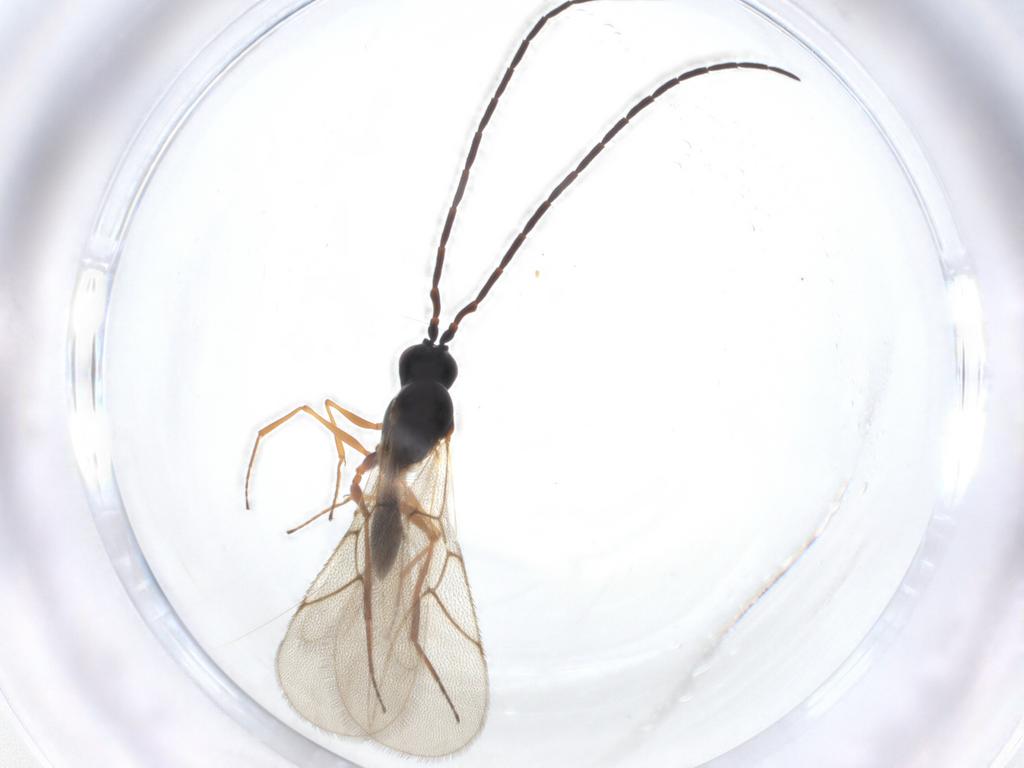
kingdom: Animalia
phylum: Arthropoda
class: Insecta
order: Hymenoptera
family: Figitidae
